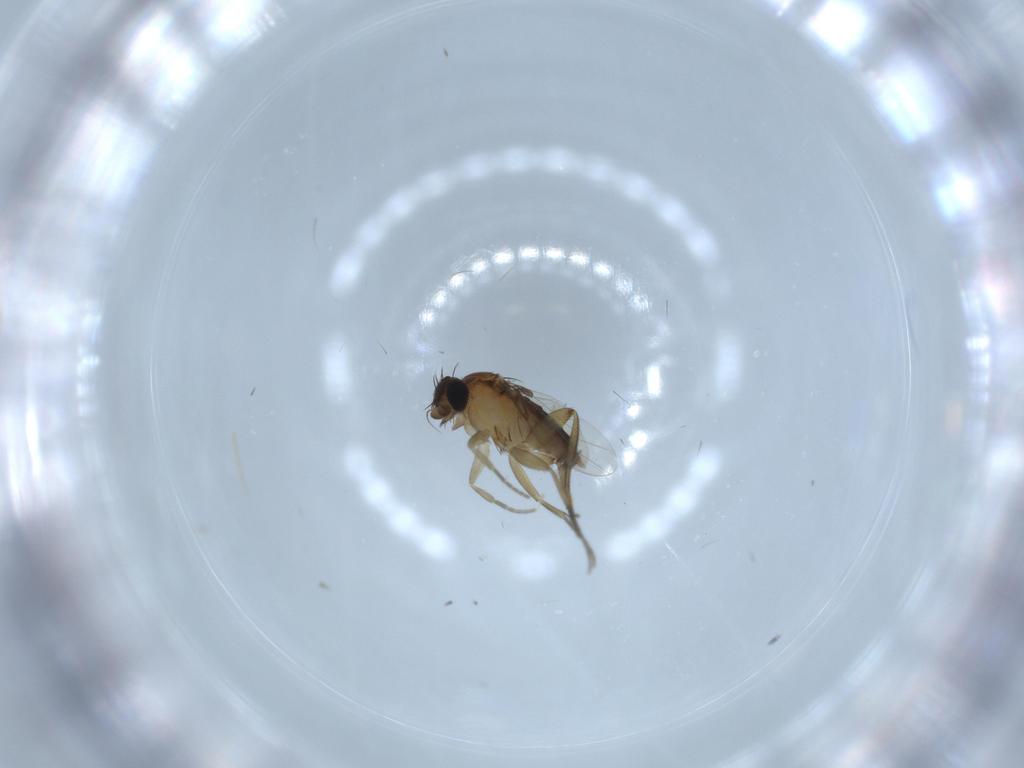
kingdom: Animalia
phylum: Arthropoda
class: Insecta
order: Diptera
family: Phoridae
